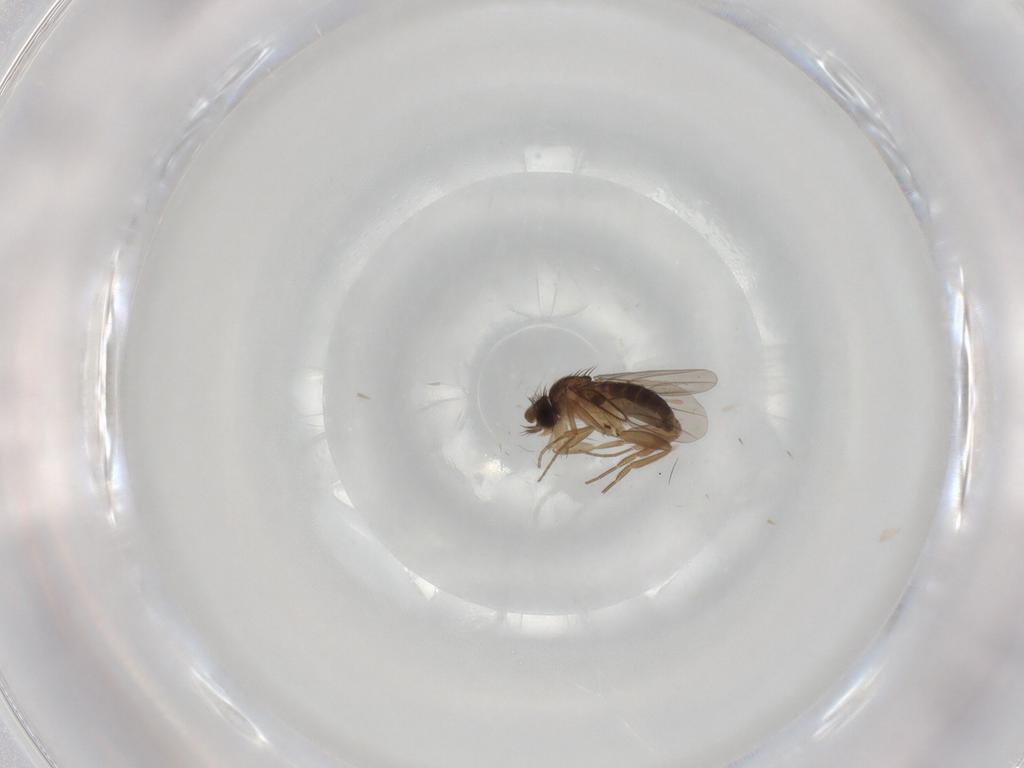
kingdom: Animalia
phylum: Arthropoda
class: Insecta
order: Diptera
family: Phoridae
